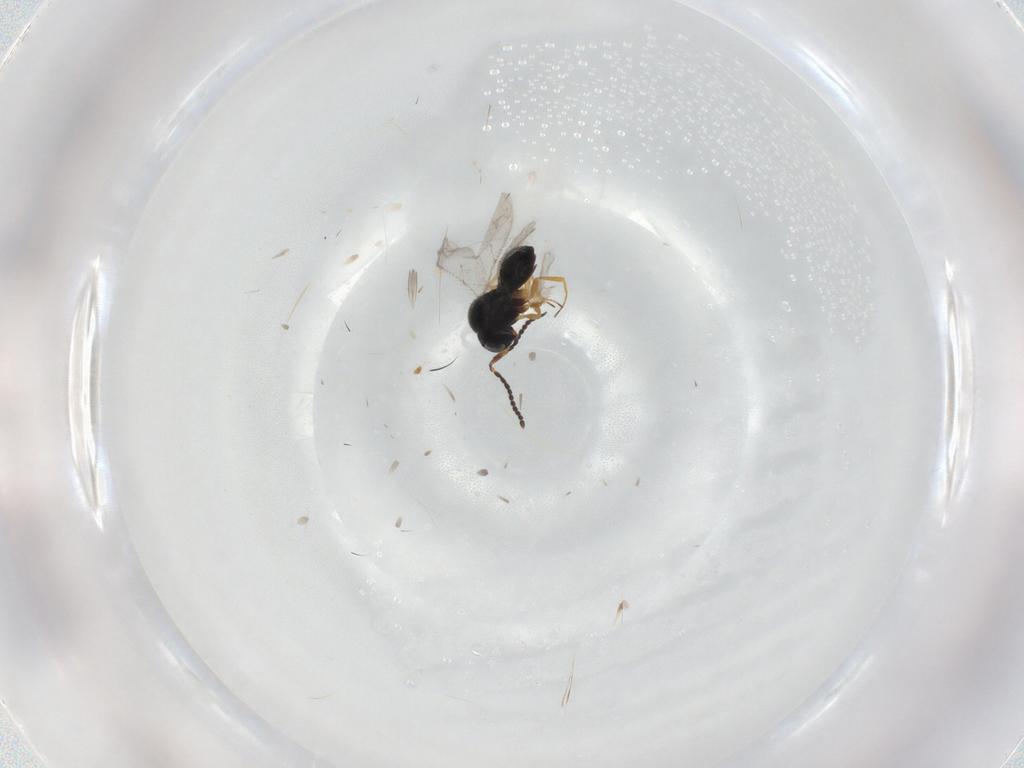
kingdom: Animalia
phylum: Arthropoda
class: Insecta
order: Hymenoptera
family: Scelionidae
